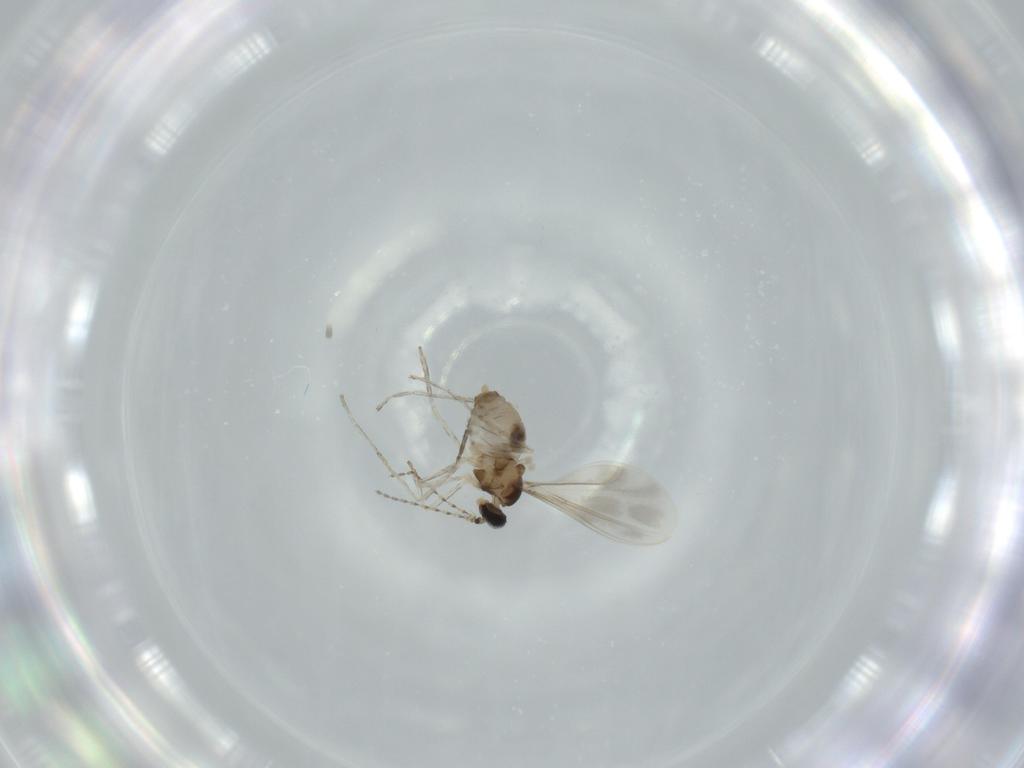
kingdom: Animalia
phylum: Arthropoda
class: Insecta
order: Diptera
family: Cecidomyiidae
